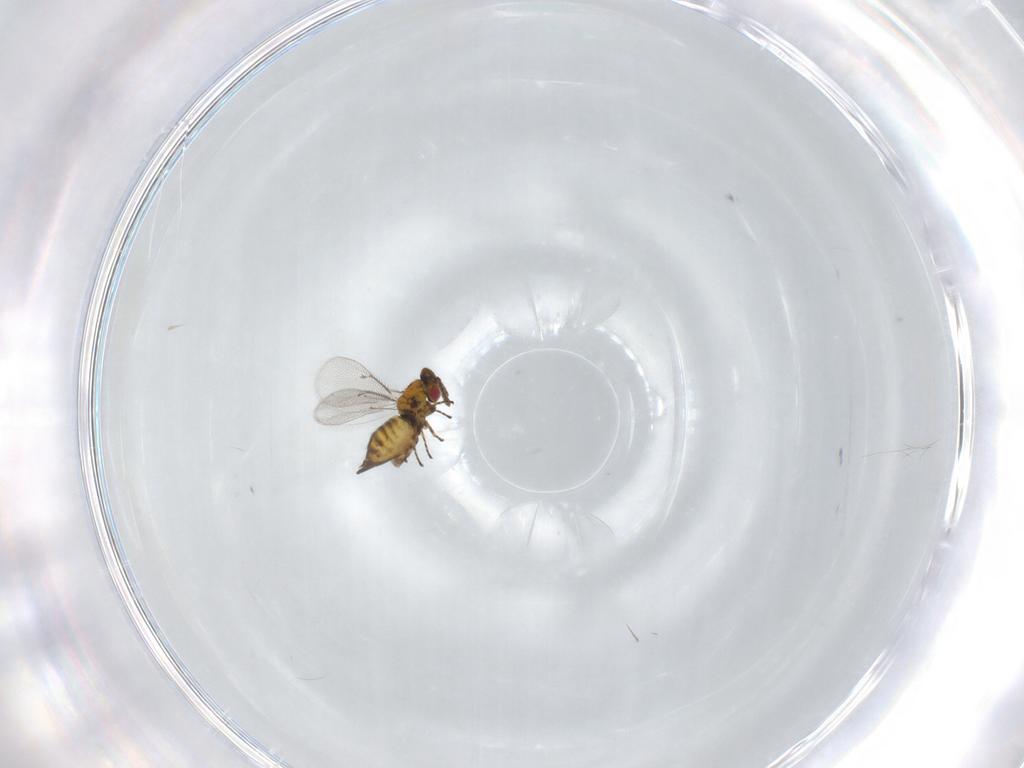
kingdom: Animalia
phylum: Arthropoda
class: Insecta
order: Hymenoptera
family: Eulophidae
